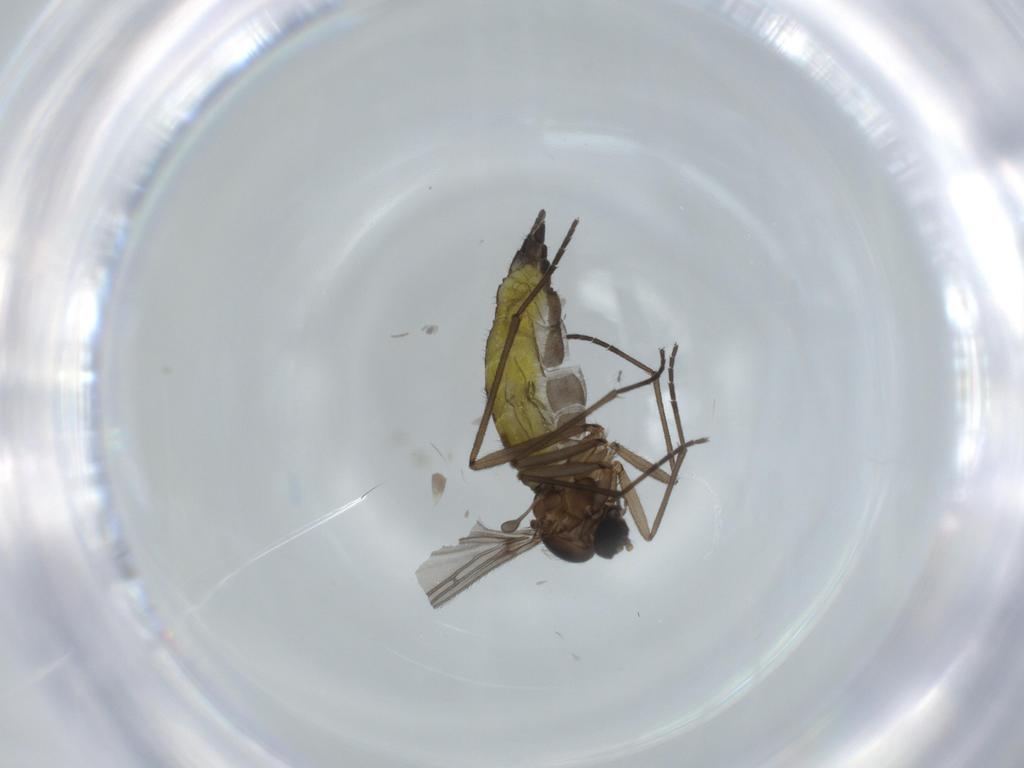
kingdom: Animalia
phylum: Arthropoda
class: Insecta
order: Diptera
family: Sciaridae
